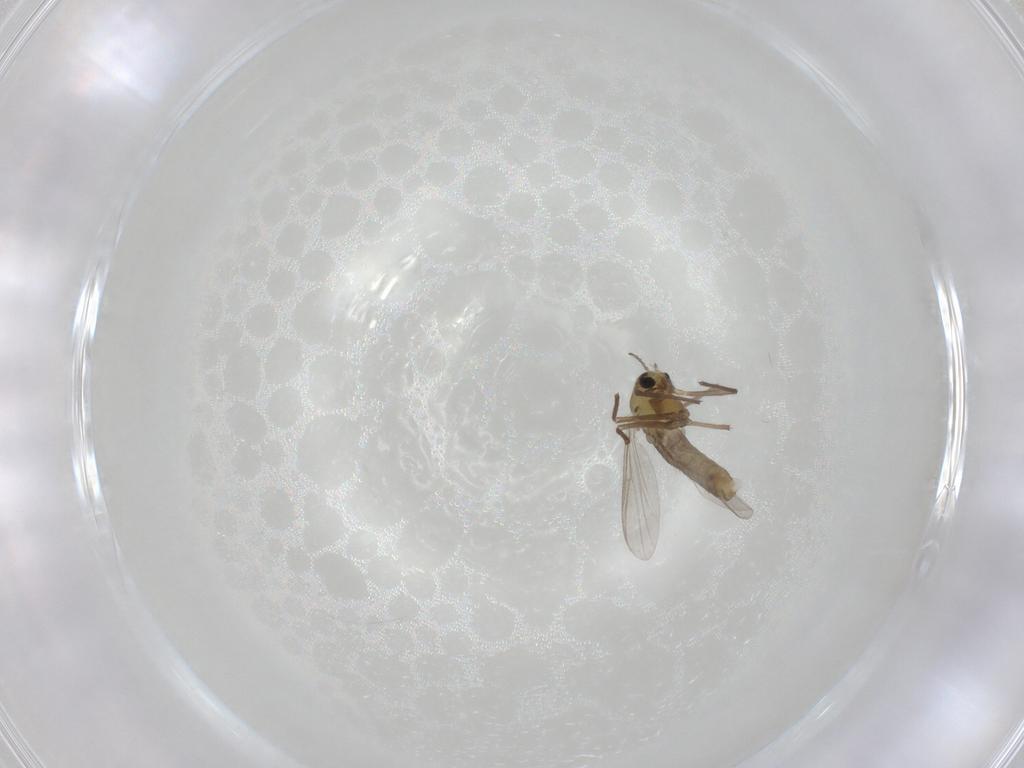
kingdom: Animalia
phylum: Arthropoda
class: Insecta
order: Diptera
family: Chironomidae
